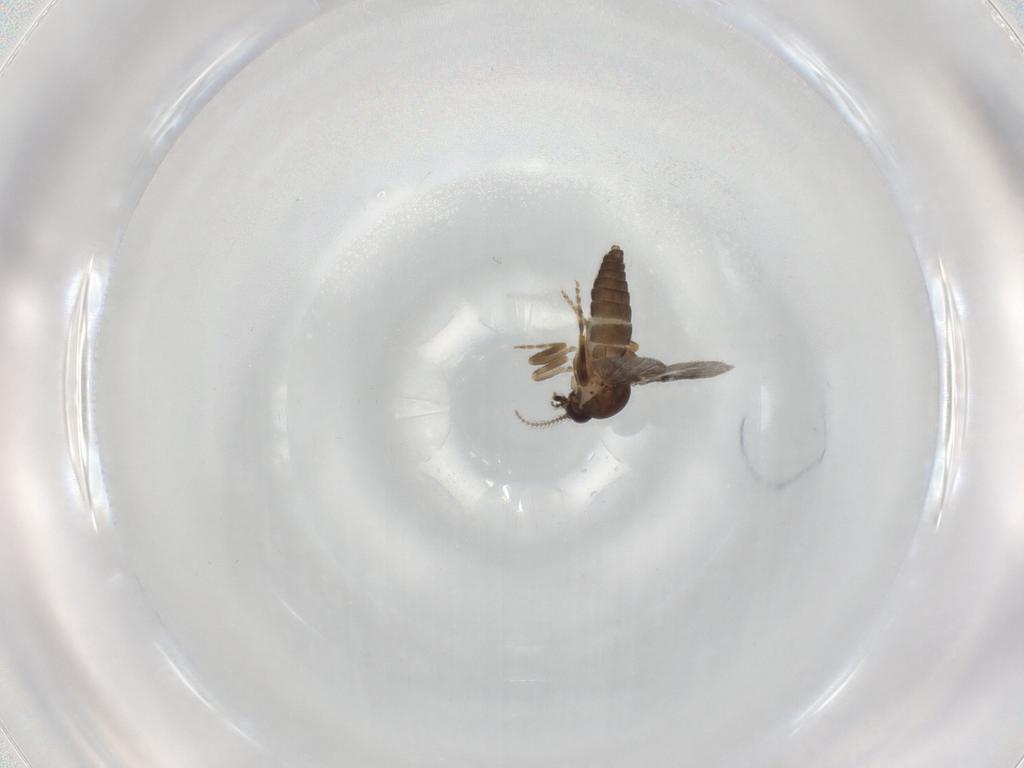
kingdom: Animalia
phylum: Arthropoda
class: Insecta
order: Diptera
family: Ceratopogonidae
